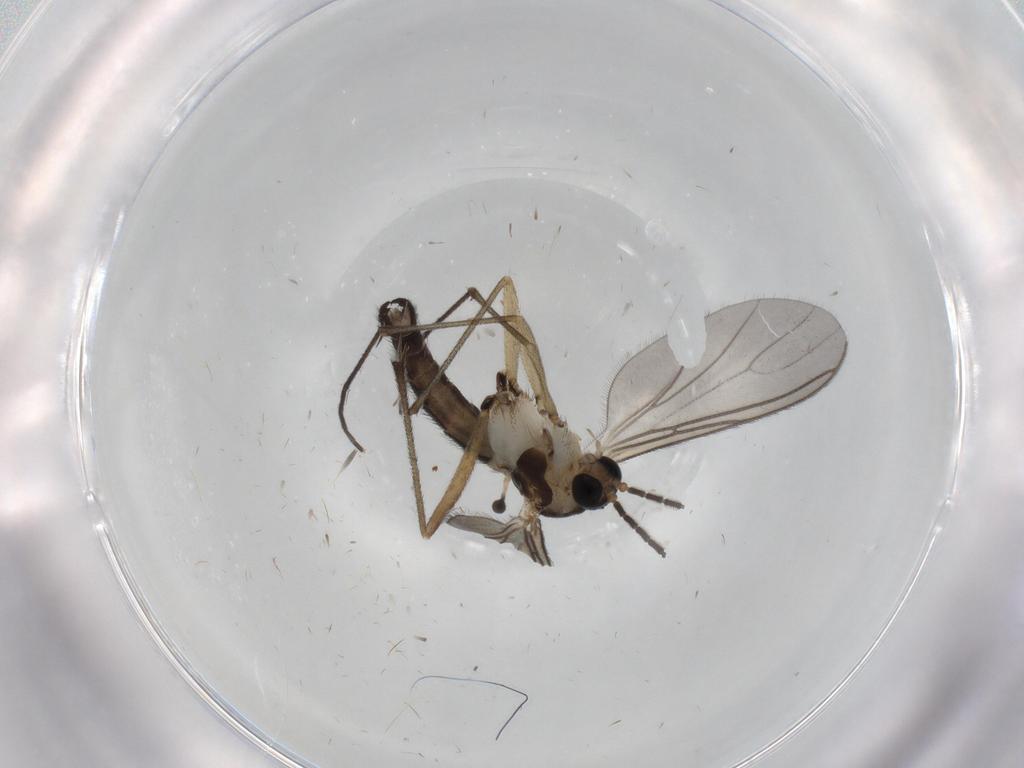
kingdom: Animalia
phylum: Arthropoda
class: Insecta
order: Diptera
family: Sciaridae
